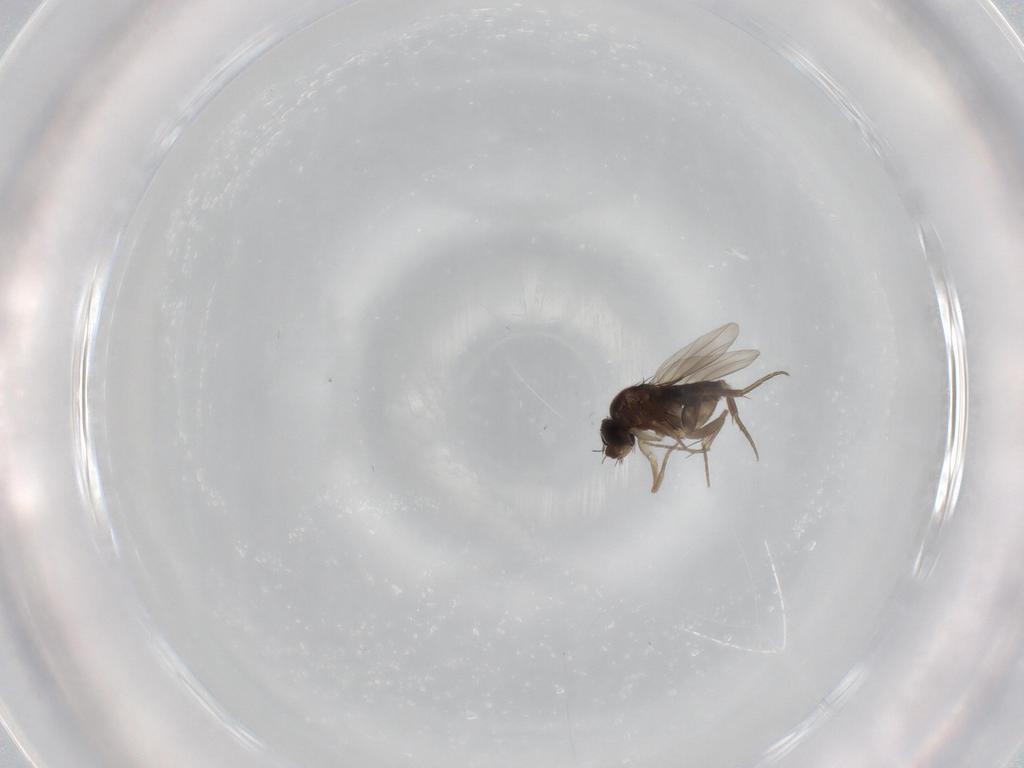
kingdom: Animalia
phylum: Arthropoda
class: Insecta
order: Diptera
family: Phoridae
